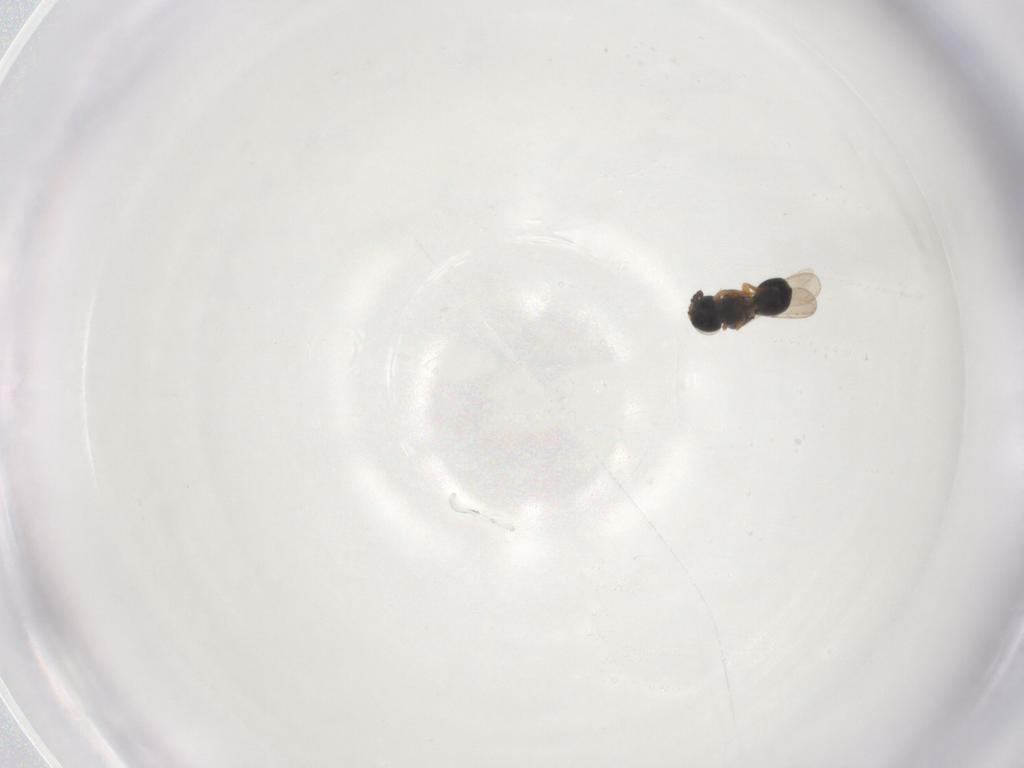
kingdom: Animalia
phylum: Arthropoda
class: Insecta
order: Hymenoptera
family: Scelionidae
